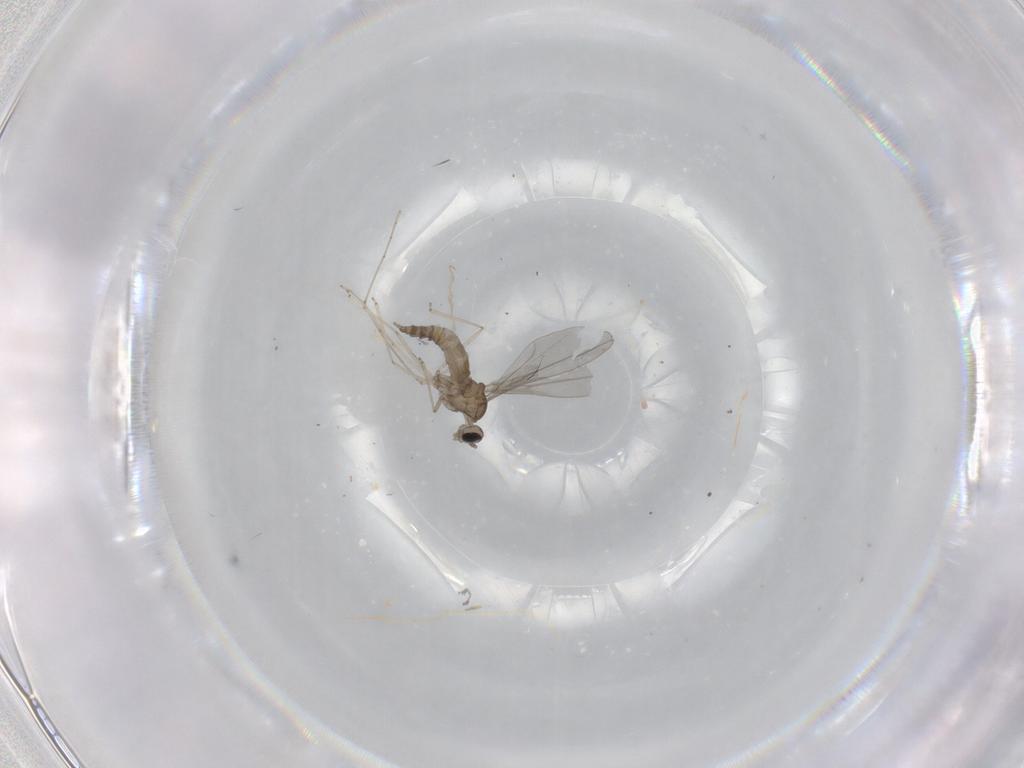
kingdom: Animalia
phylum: Arthropoda
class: Insecta
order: Diptera
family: Cecidomyiidae
